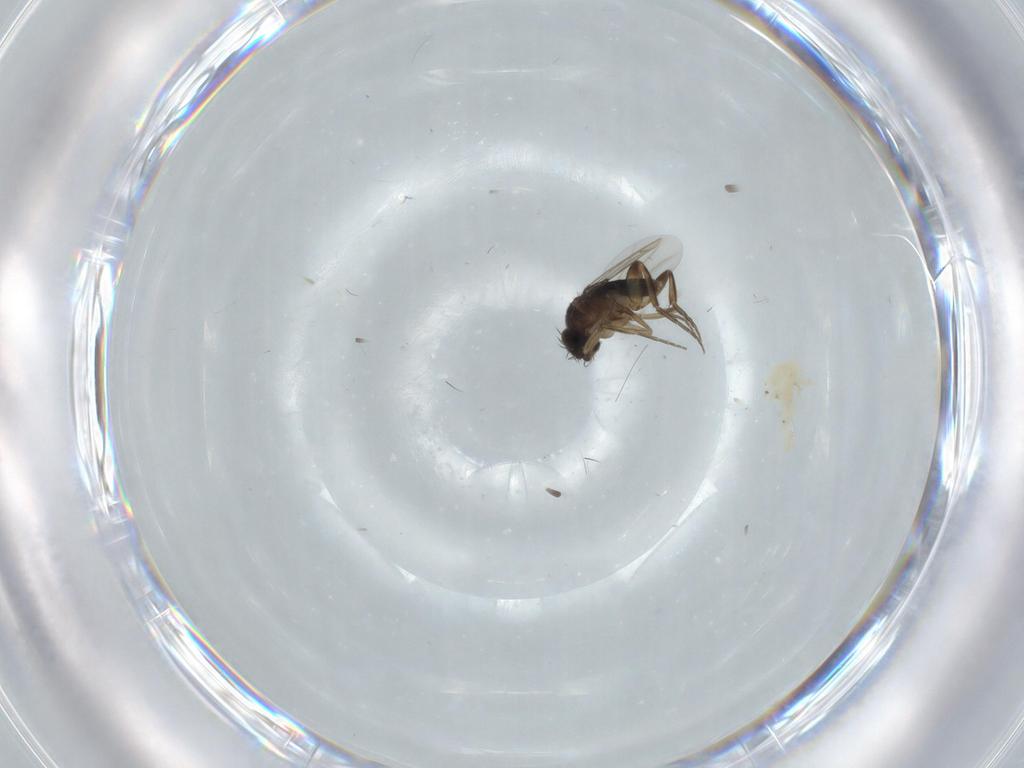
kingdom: Animalia
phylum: Arthropoda
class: Insecta
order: Diptera
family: Phoridae
